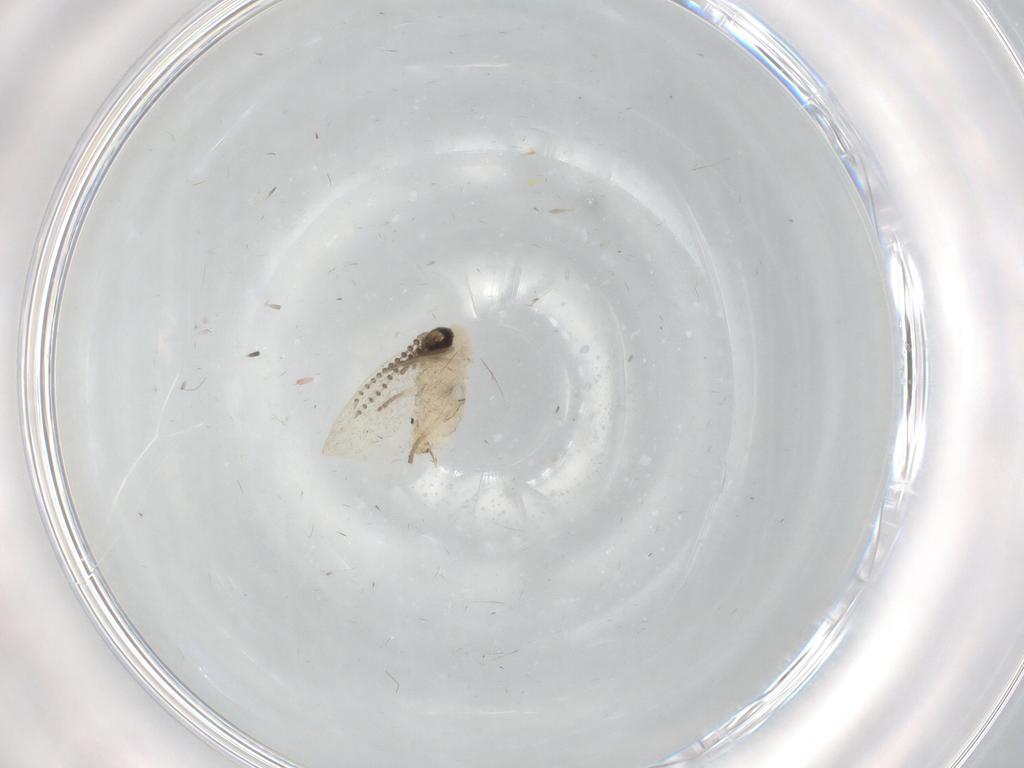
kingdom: Animalia
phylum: Arthropoda
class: Insecta
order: Diptera
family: Psychodidae
